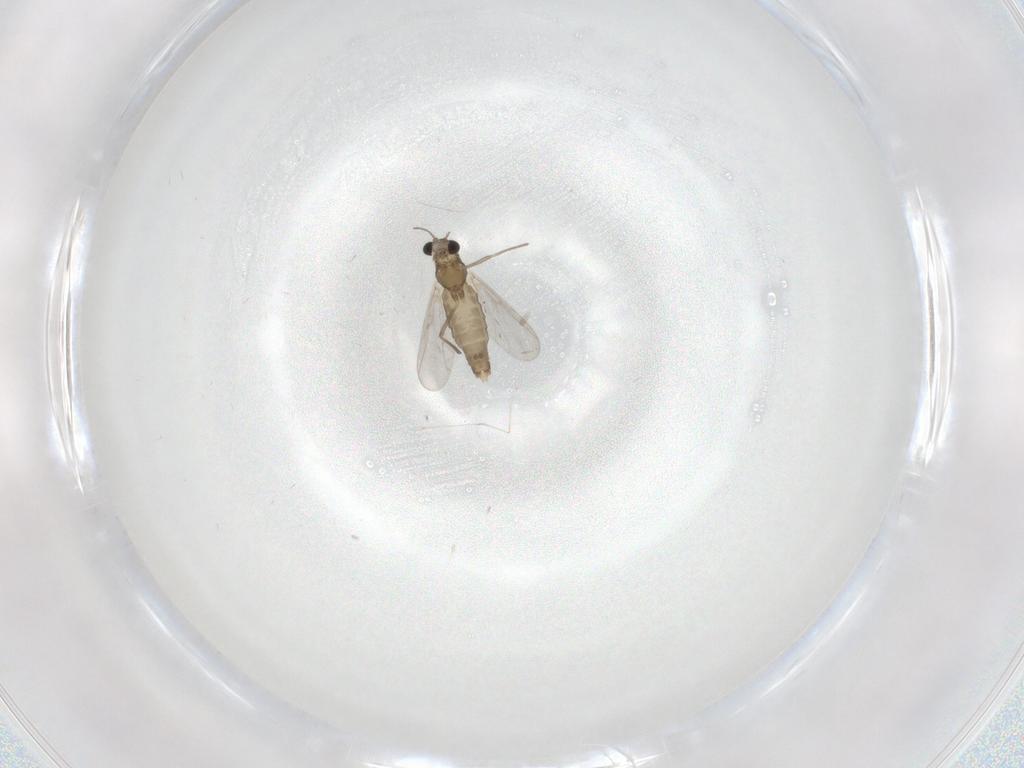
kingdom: Animalia
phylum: Arthropoda
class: Insecta
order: Diptera
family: Chironomidae
